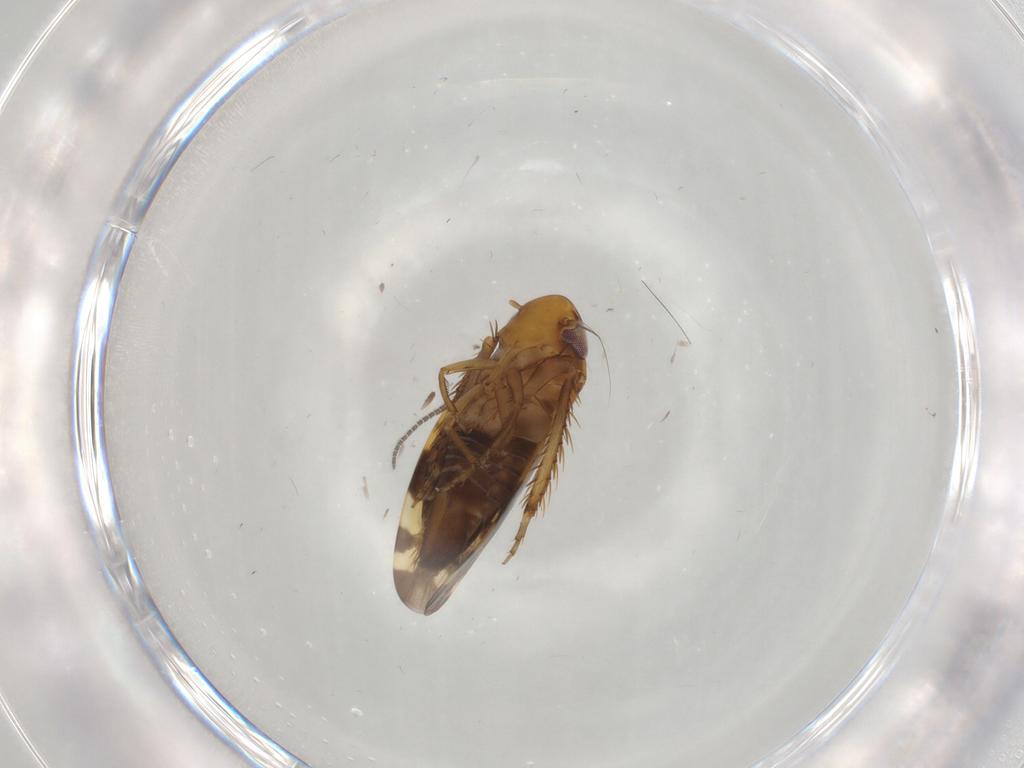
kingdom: Animalia
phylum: Arthropoda
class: Insecta
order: Hemiptera
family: Cicadellidae
